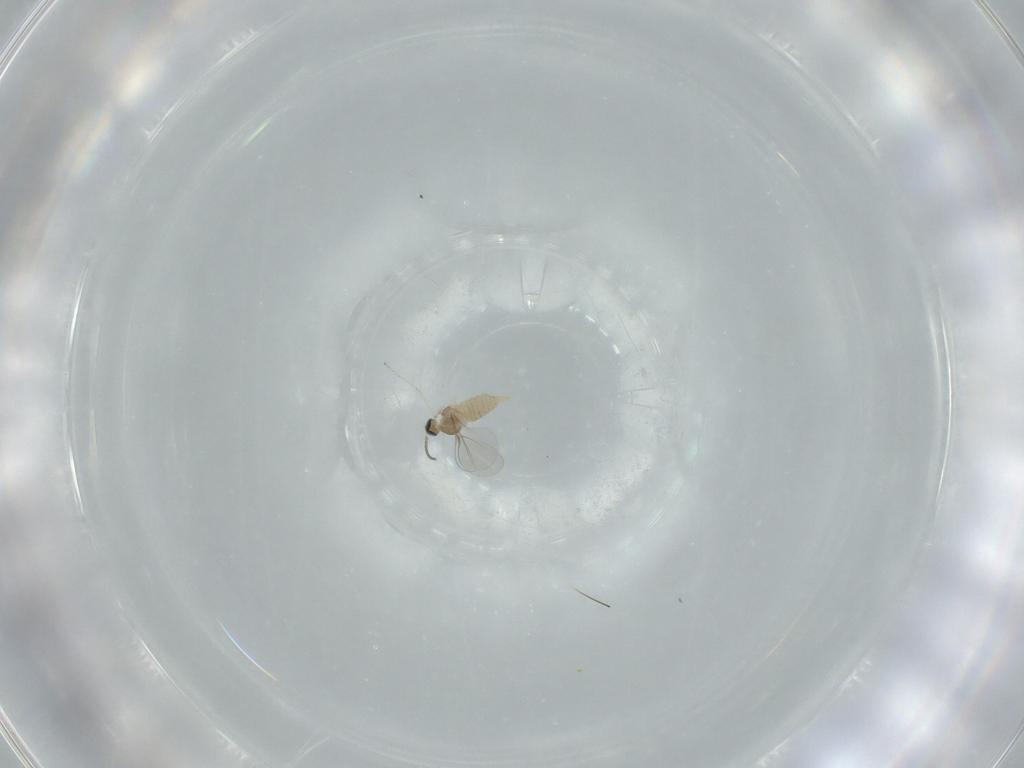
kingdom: Animalia
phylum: Arthropoda
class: Insecta
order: Diptera
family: Cecidomyiidae
